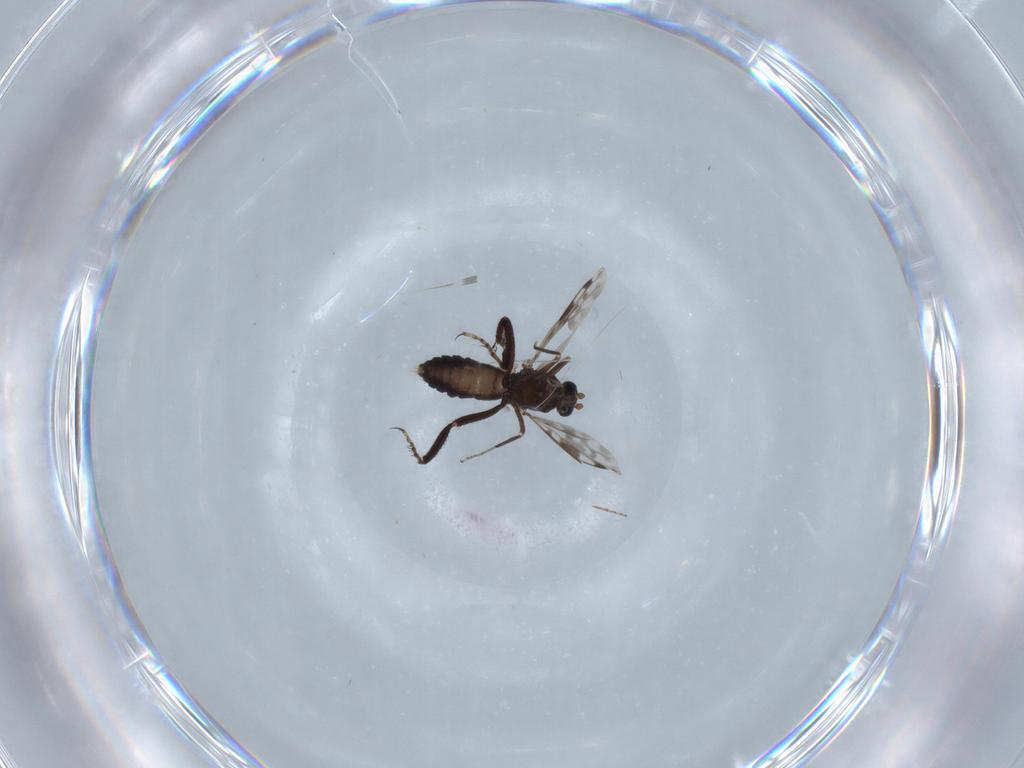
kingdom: Animalia
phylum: Arthropoda
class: Insecta
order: Diptera
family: Ceratopogonidae
